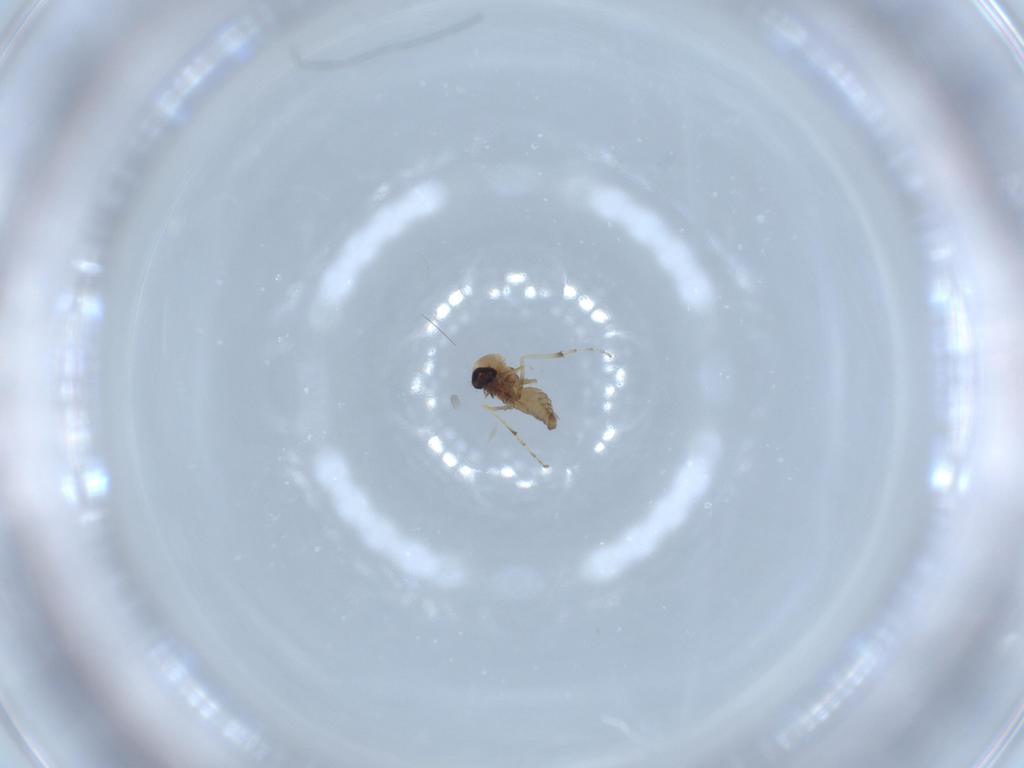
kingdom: Animalia
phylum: Arthropoda
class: Insecta
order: Diptera
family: Ceratopogonidae
